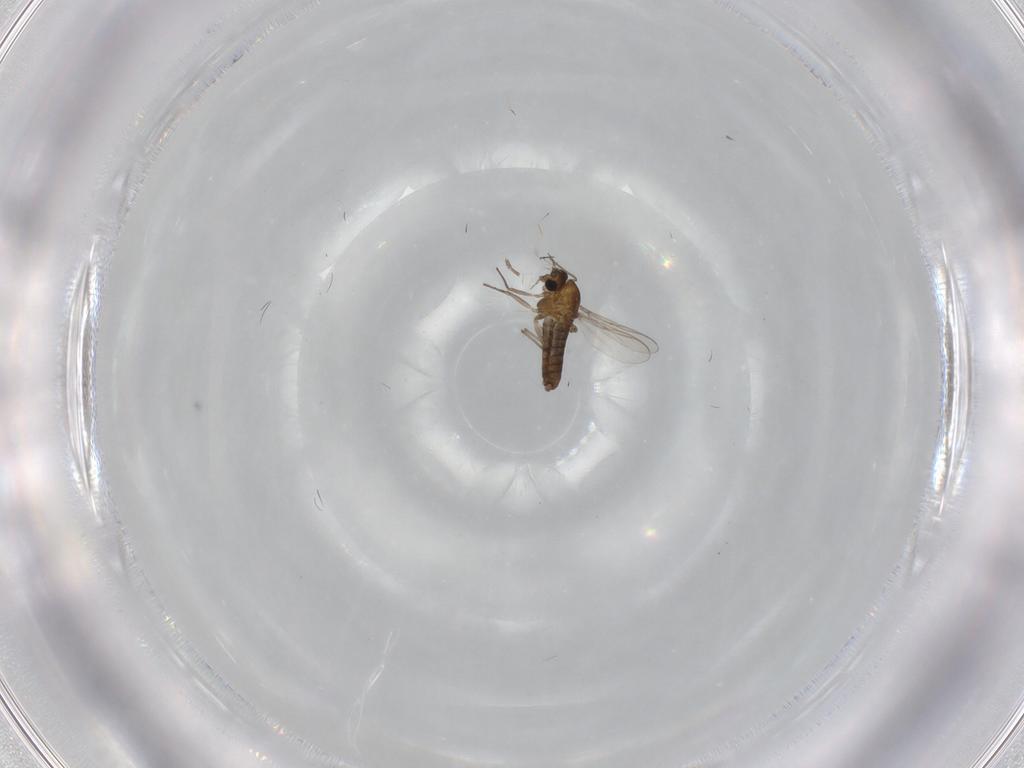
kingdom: Animalia
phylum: Arthropoda
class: Insecta
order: Diptera
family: Chironomidae
